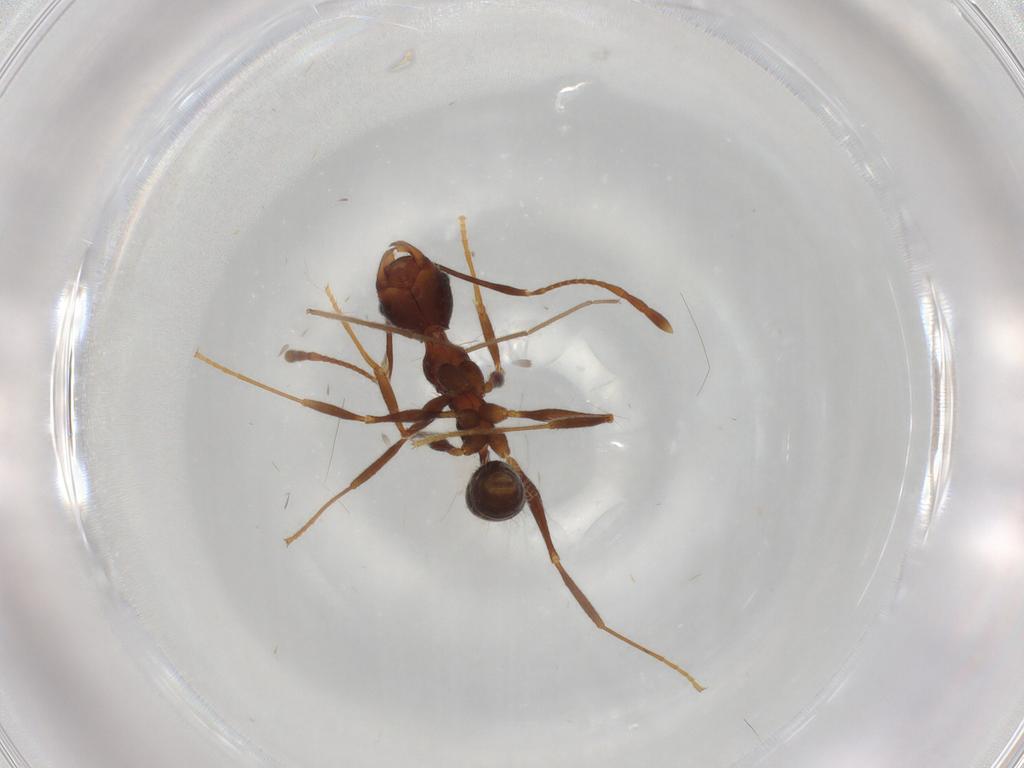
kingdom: Animalia
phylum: Arthropoda
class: Insecta
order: Hymenoptera
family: Formicidae
